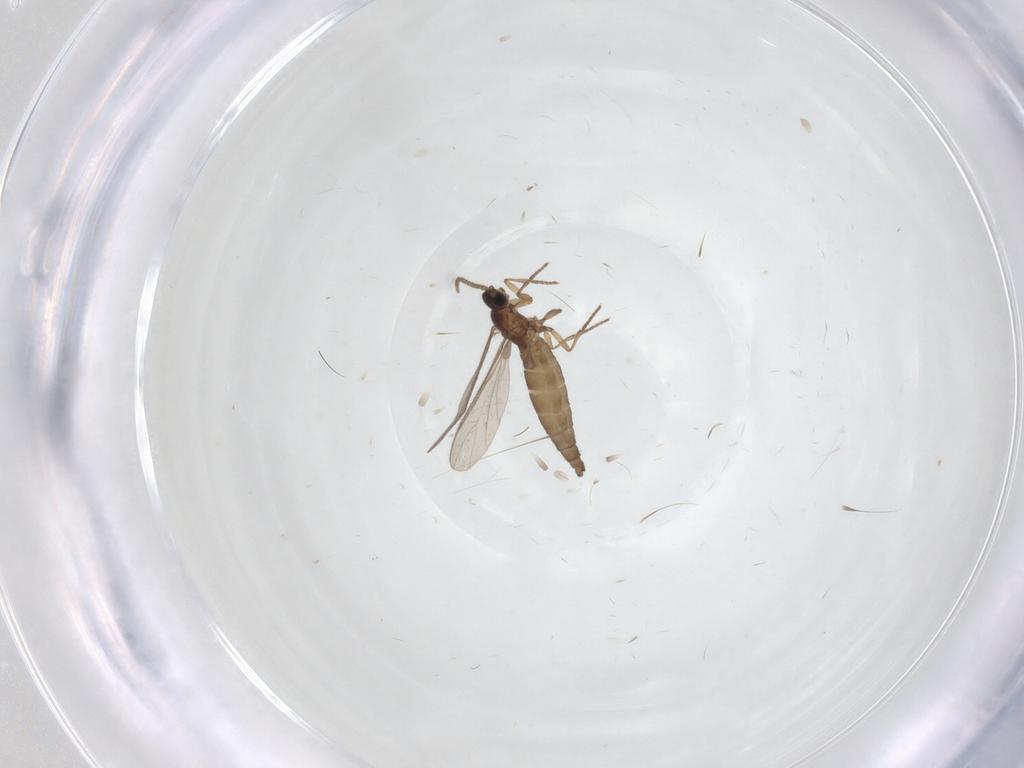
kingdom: Animalia
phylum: Arthropoda
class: Insecta
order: Diptera
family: Sciaridae
